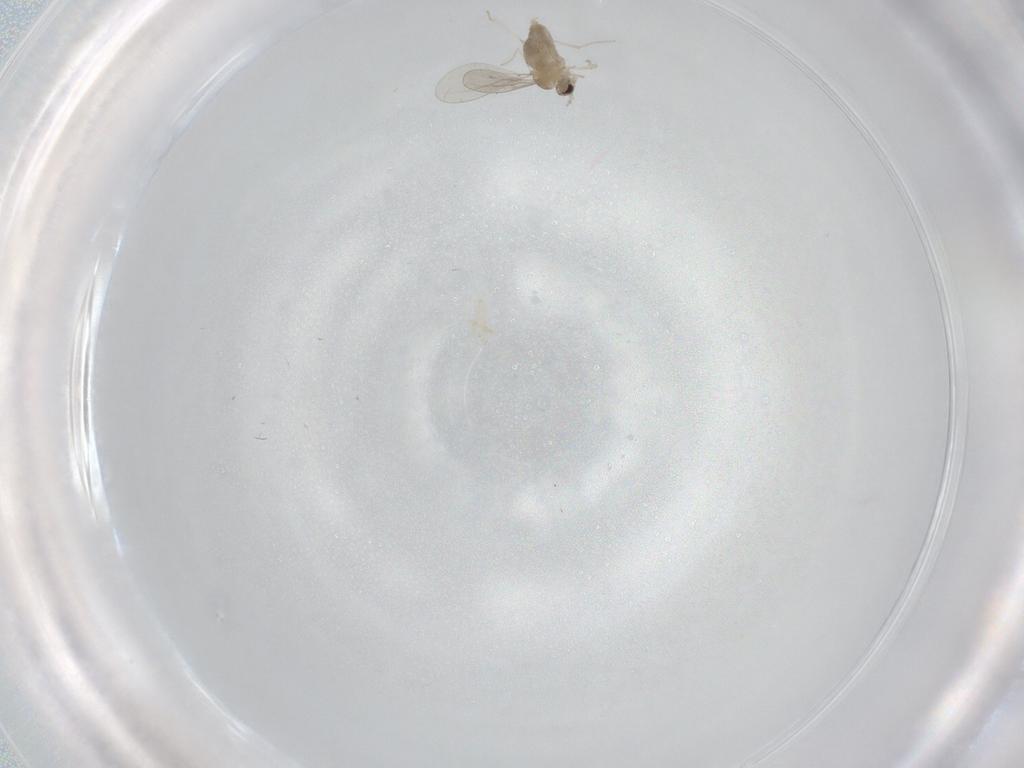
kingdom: Animalia
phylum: Arthropoda
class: Insecta
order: Diptera
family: Cecidomyiidae
